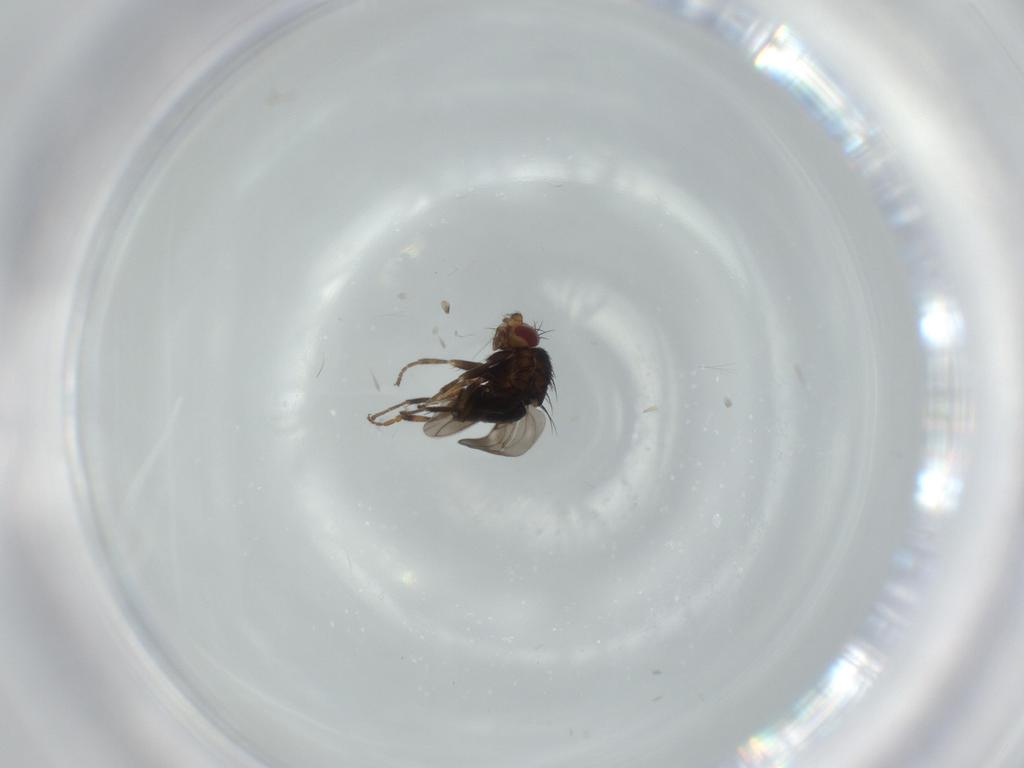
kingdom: Animalia
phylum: Arthropoda
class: Insecta
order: Diptera
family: Sphaeroceridae
